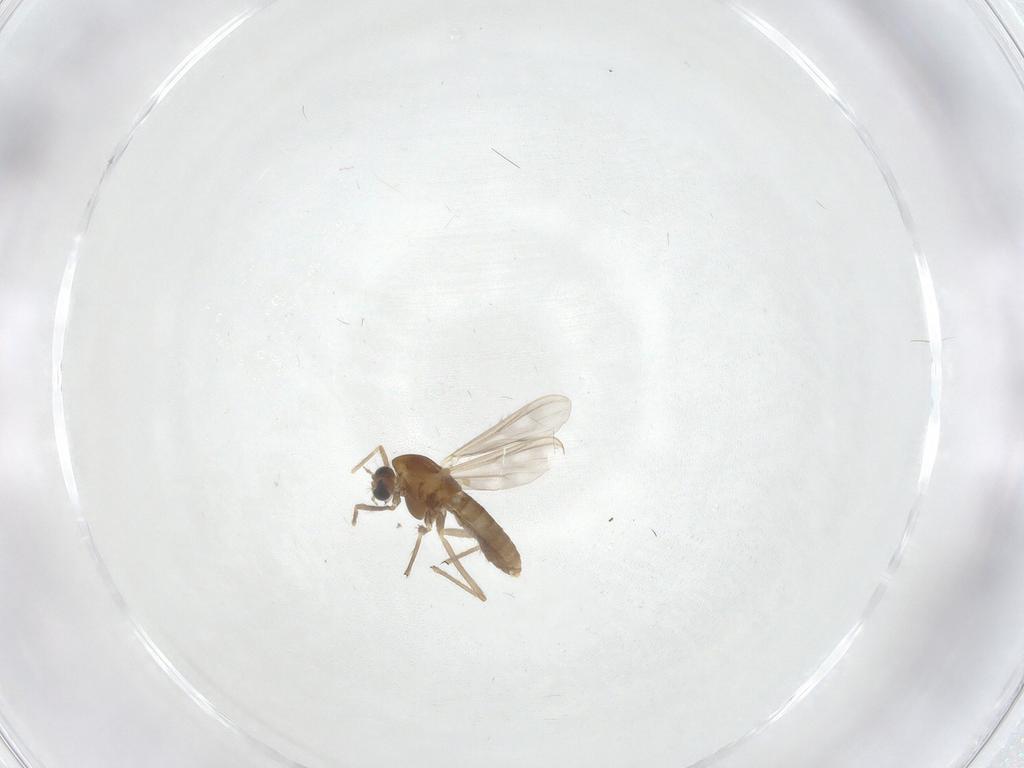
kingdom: Animalia
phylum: Arthropoda
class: Insecta
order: Diptera
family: Chironomidae
